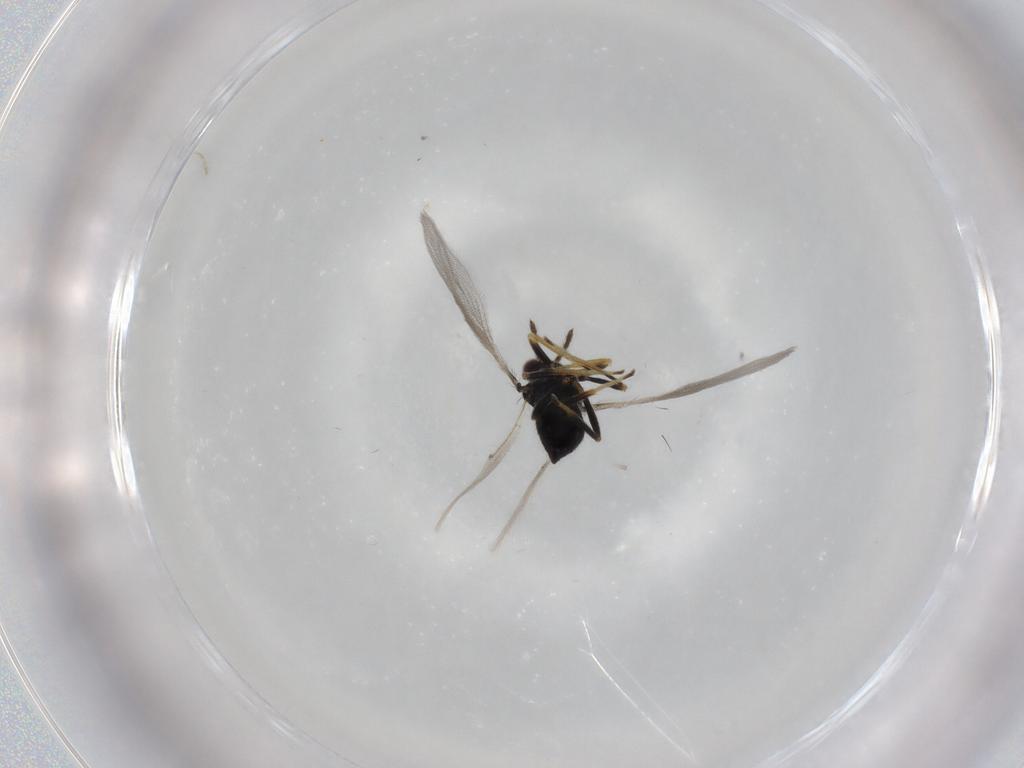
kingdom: Animalia
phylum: Arthropoda
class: Insecta
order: Hymenoptera
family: Eulophidae
